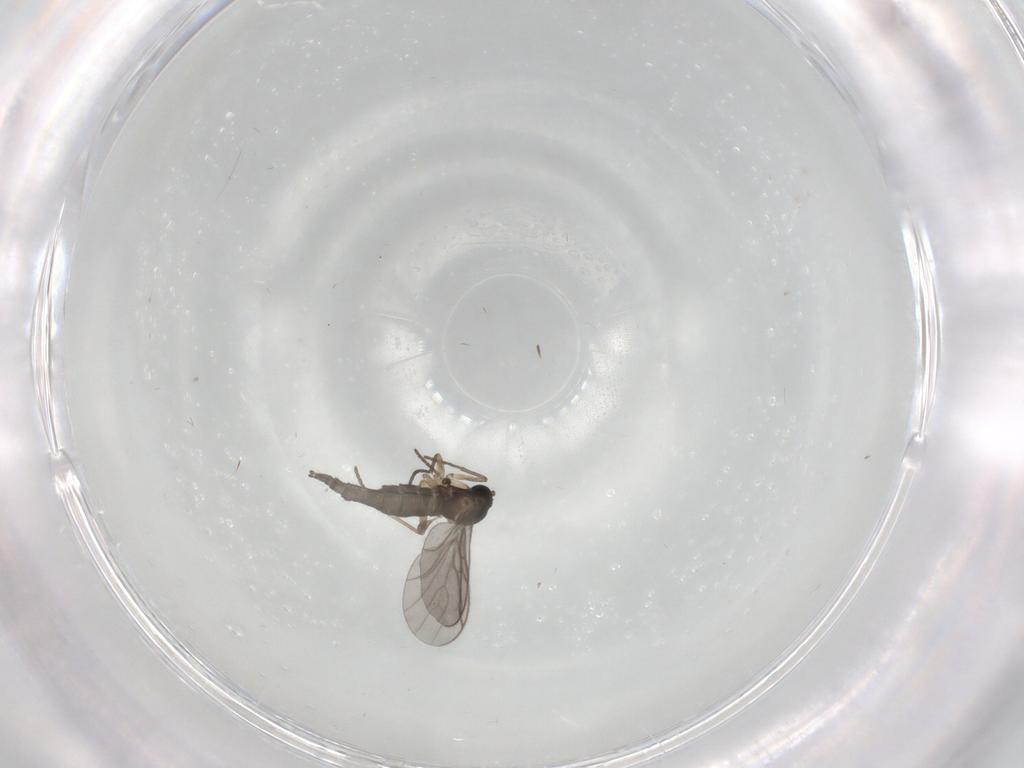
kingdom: Animalia
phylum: Arthropoda
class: Insecta
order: Diptera
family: Sciaridae
